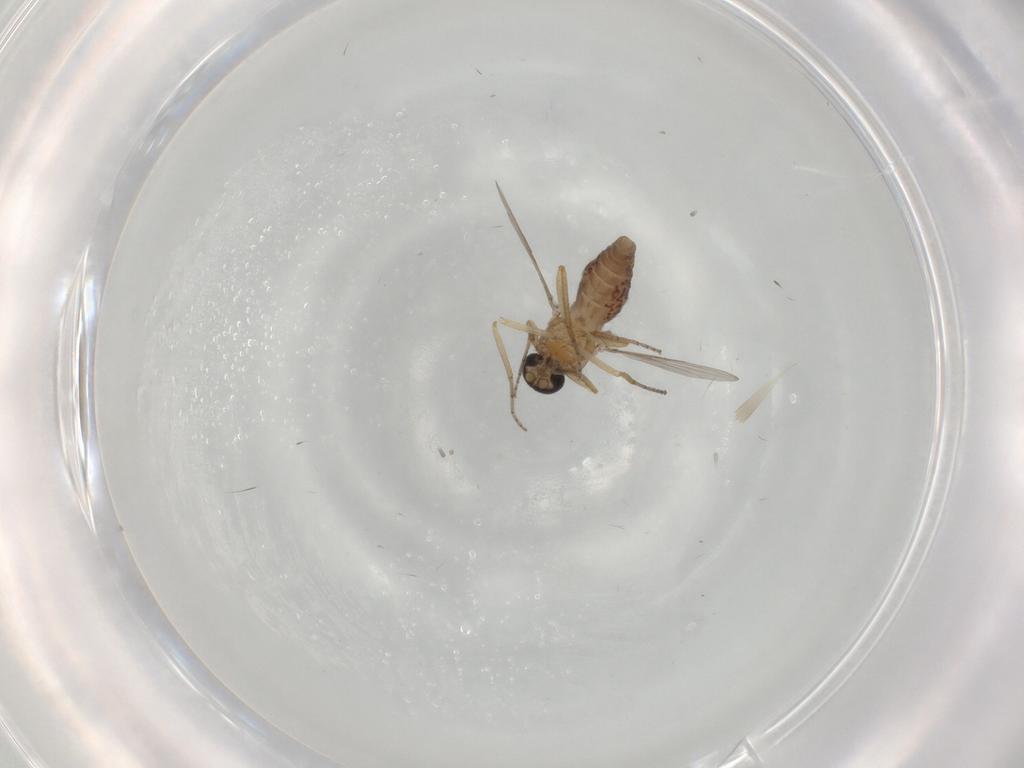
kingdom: Animalia
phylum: Arthropoda
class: Insecta
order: Diptera
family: Ceratopogonidae
